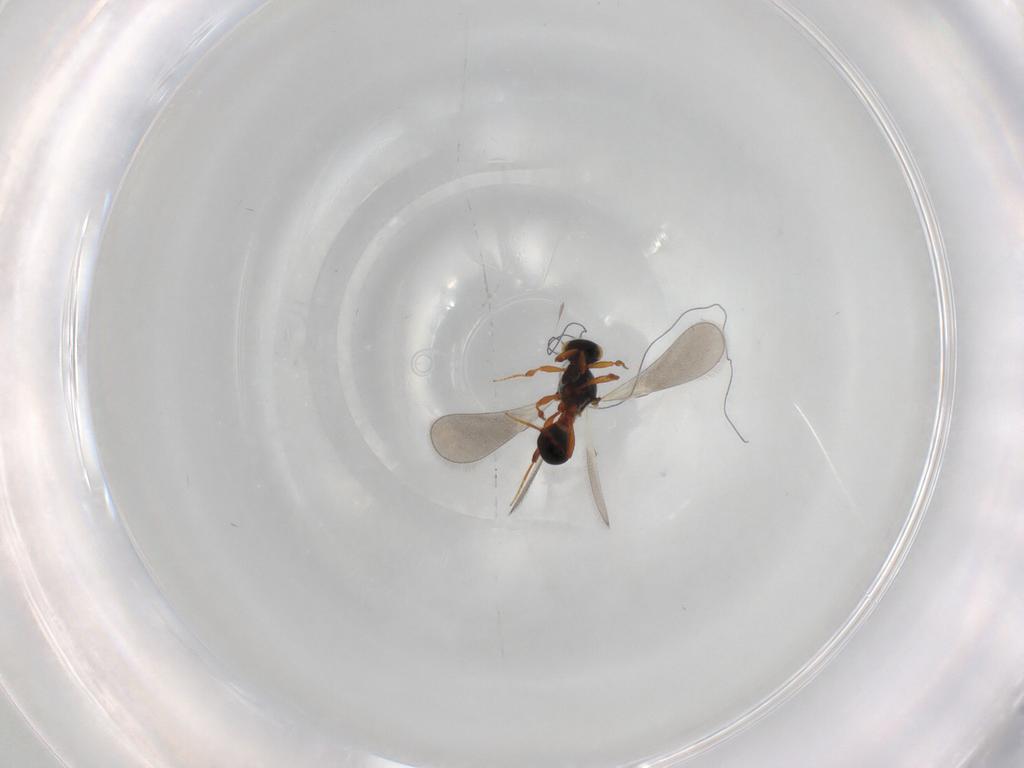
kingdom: Animalia
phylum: Arthropoda
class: Insecta
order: Hymenoptera
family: Platygastridae
